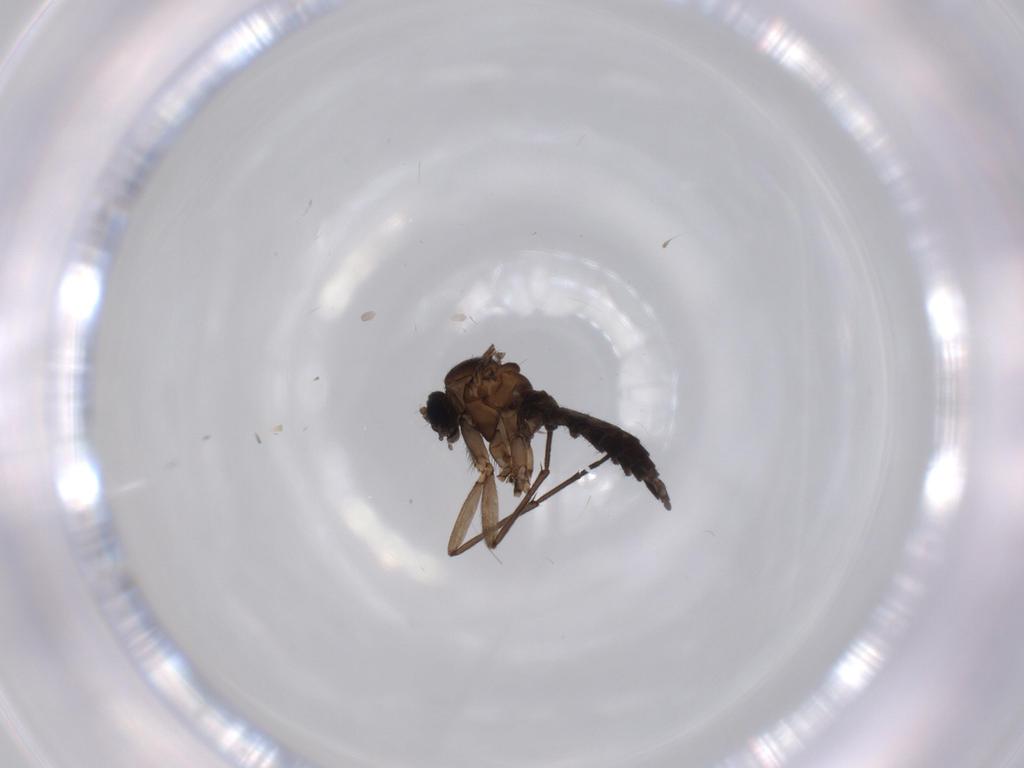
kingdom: Animalia
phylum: Arthropoda
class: Insecta
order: Diptera
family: Sciaridae
